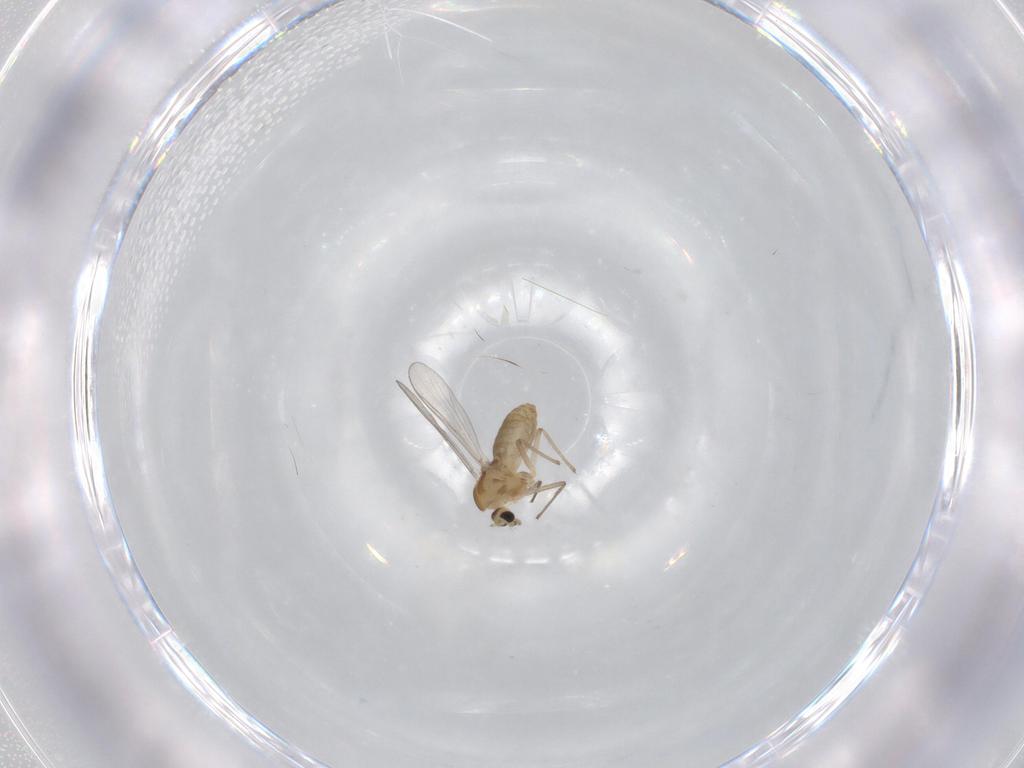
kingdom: Animalia
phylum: Arthropoda
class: Insecta
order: Diptera
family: Chironomidae
